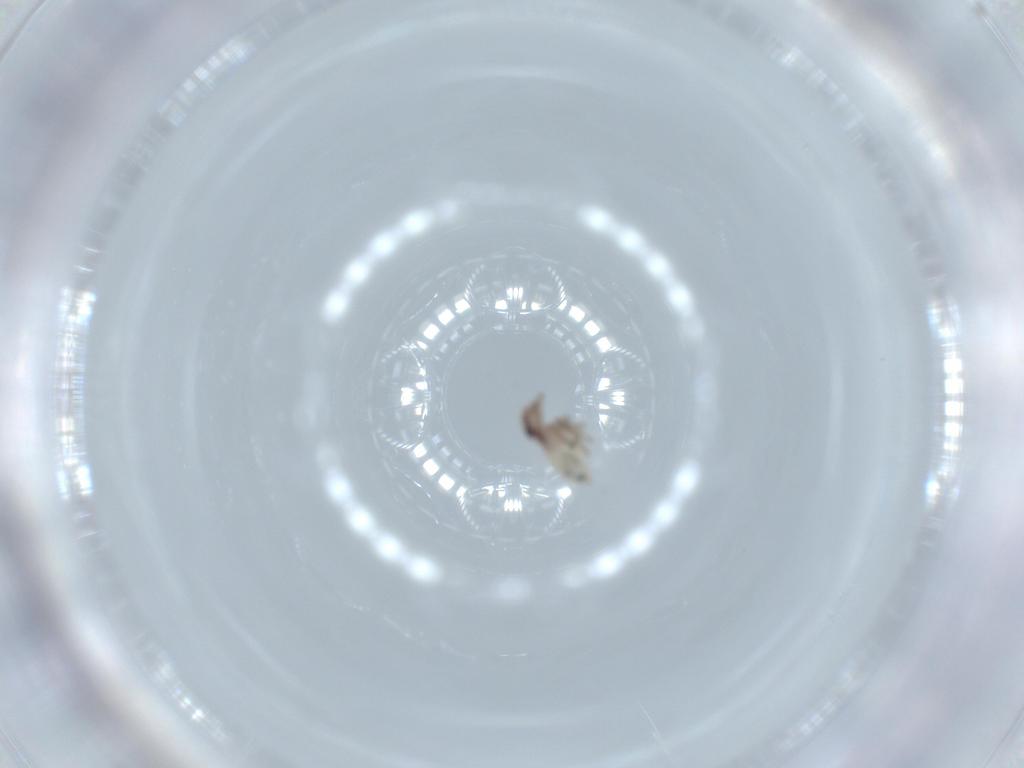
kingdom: Animalia
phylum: Arthropoda
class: Insecta
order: Psocodea
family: Lepidopsocidae
